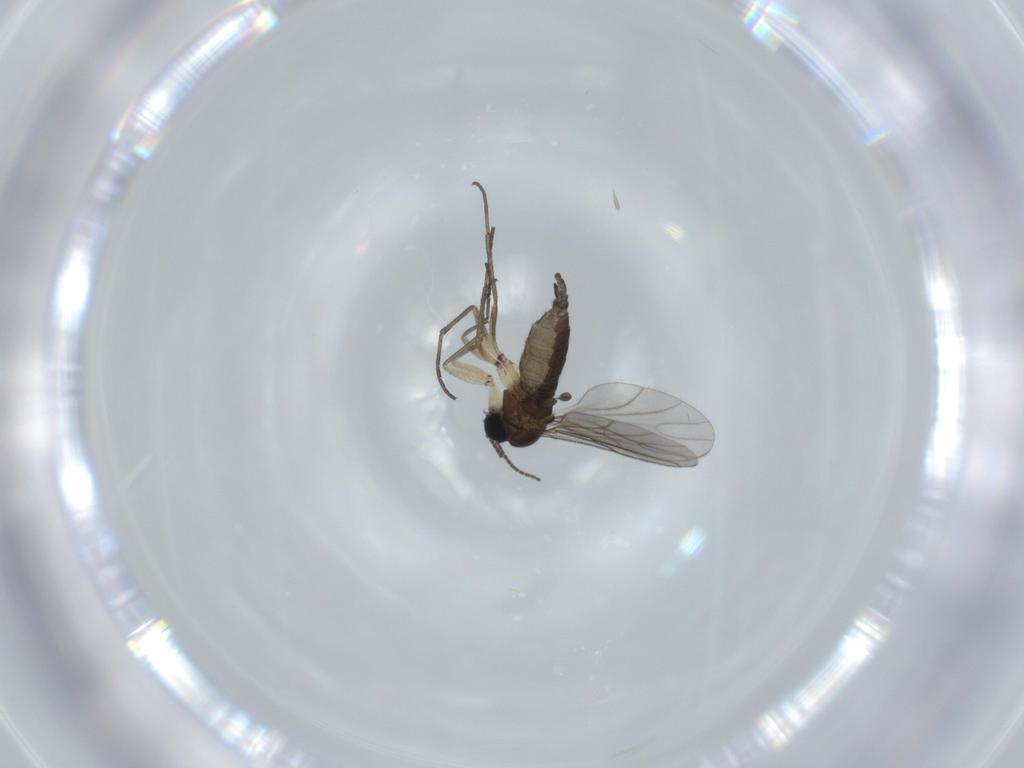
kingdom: Animalia
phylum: Arthropoda
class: Insecta
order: Diptera
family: Sciaridae
